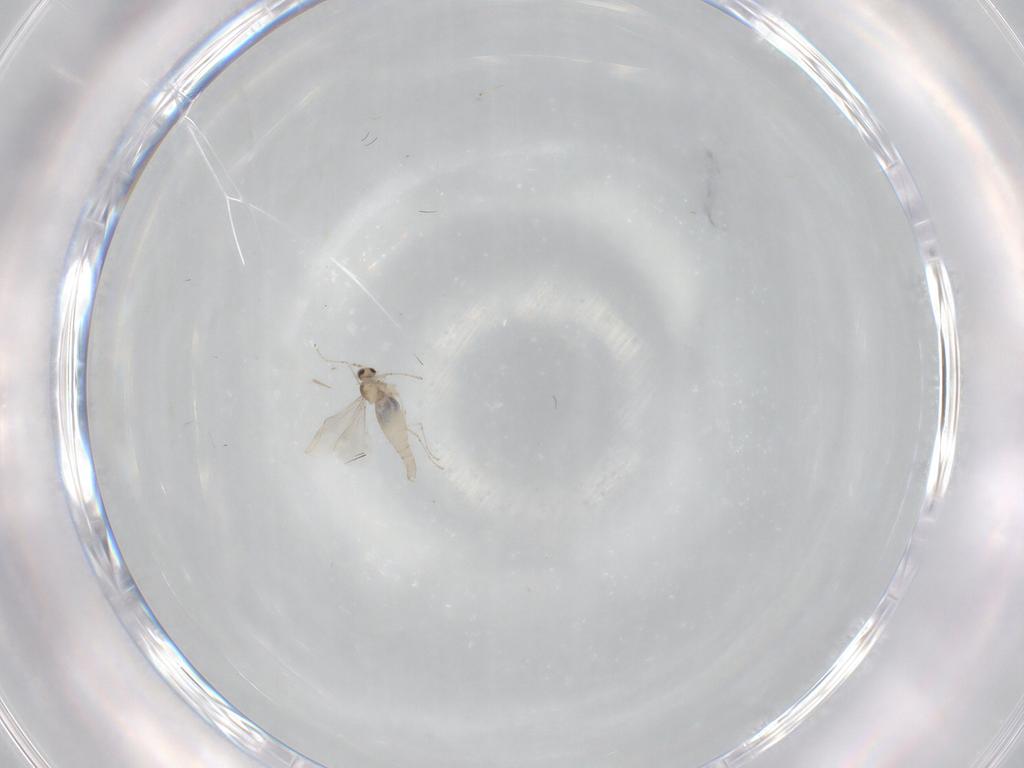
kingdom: Animalia
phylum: Arthropoda
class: Insecta
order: Diptera
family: Cecidomyiidae
